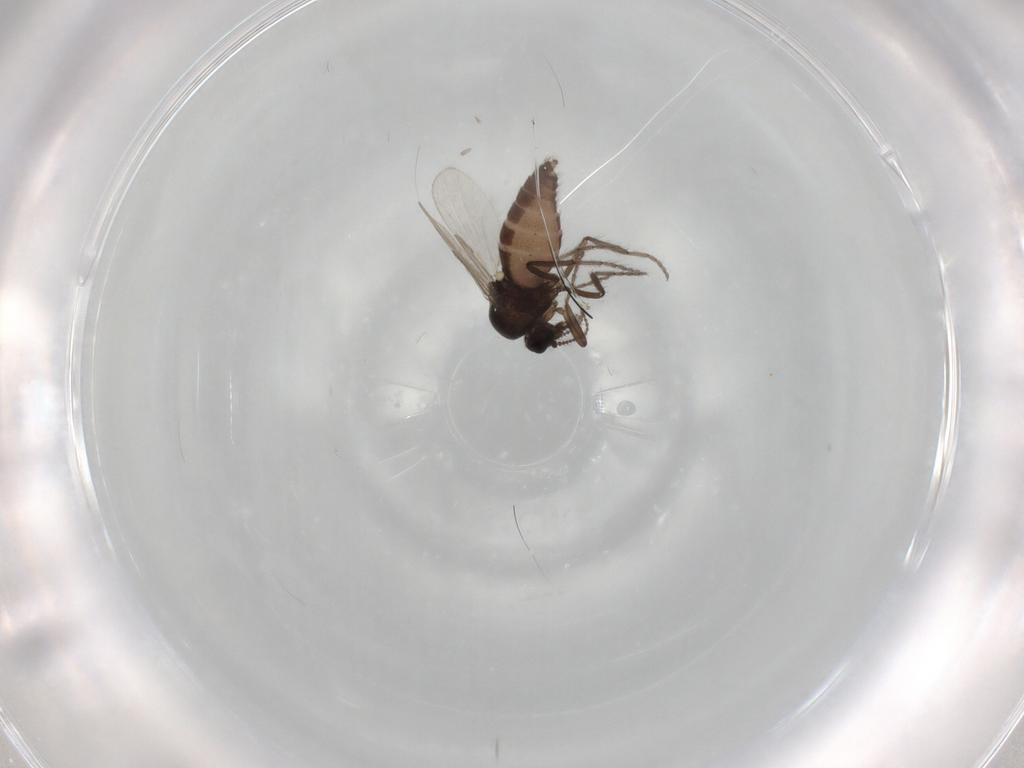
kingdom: Animalia
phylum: Arthropoda
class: Insecta
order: Diptera
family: Ceratopogonidae
